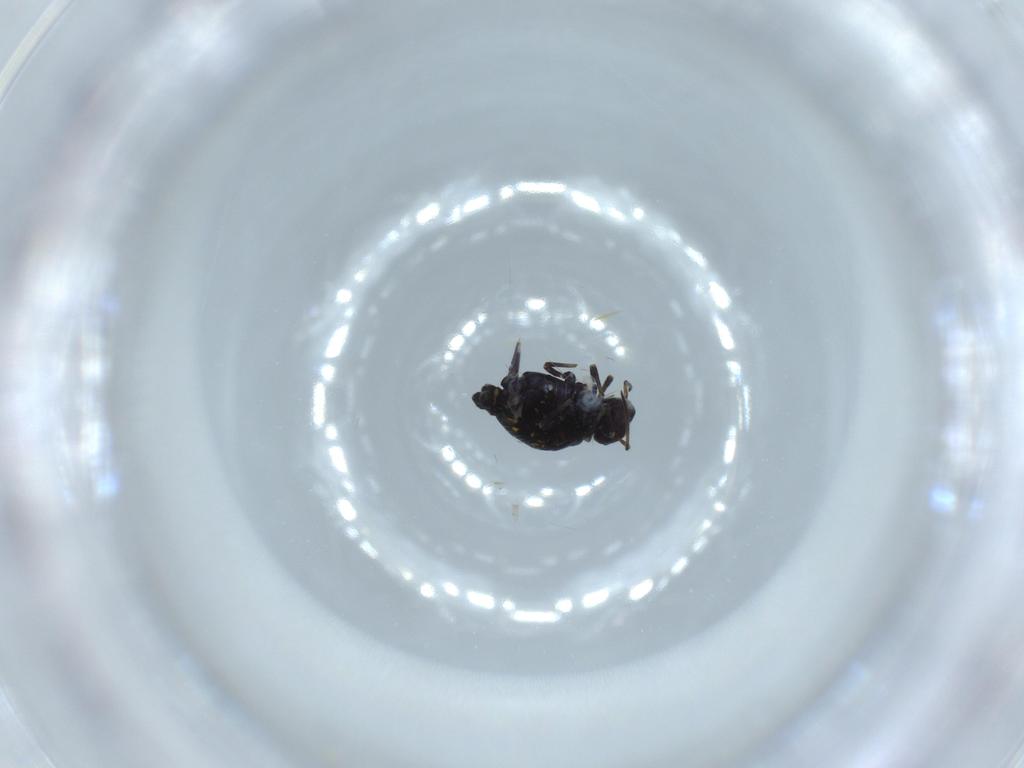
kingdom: Animalia
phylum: Arthropoda
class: Collembola
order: Symphypleona
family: Katiannidae
